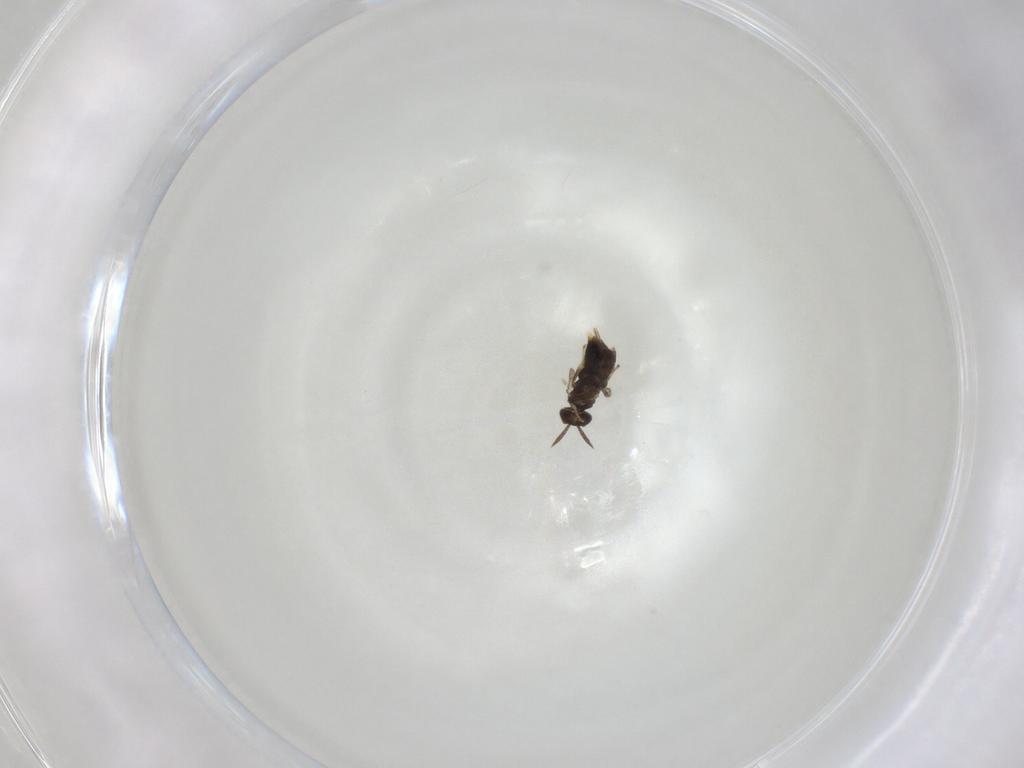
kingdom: Animalia
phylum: Arthropoda
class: Insecta
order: Hymenoptera
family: Aphelinidae
